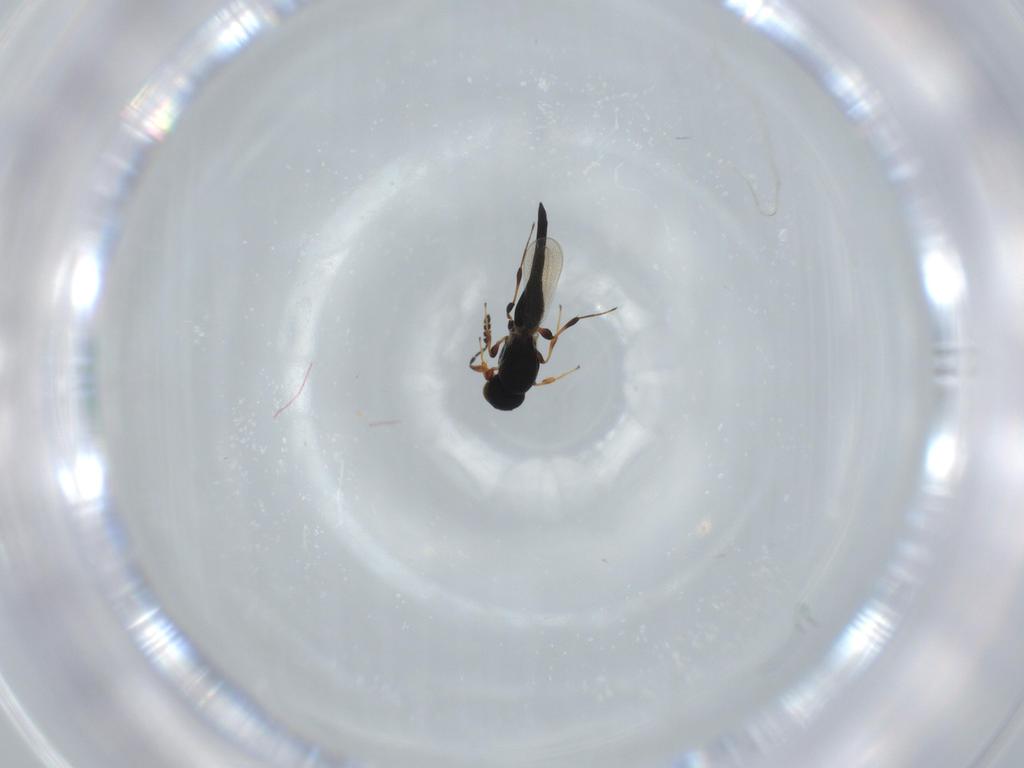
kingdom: Animalia
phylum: Arthropoda
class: Insecta
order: Hymenoptera
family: Platygastridae
